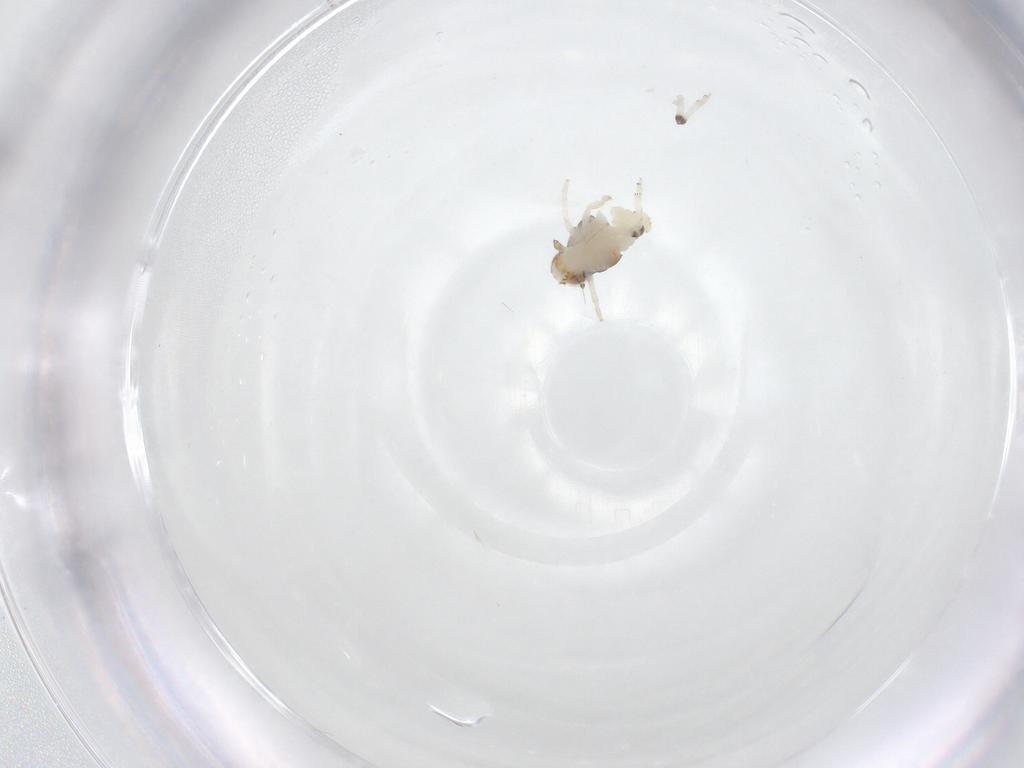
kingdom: Animalia
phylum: Arthropoda
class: Insecta
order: Hemiptera
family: Nogodinidae
